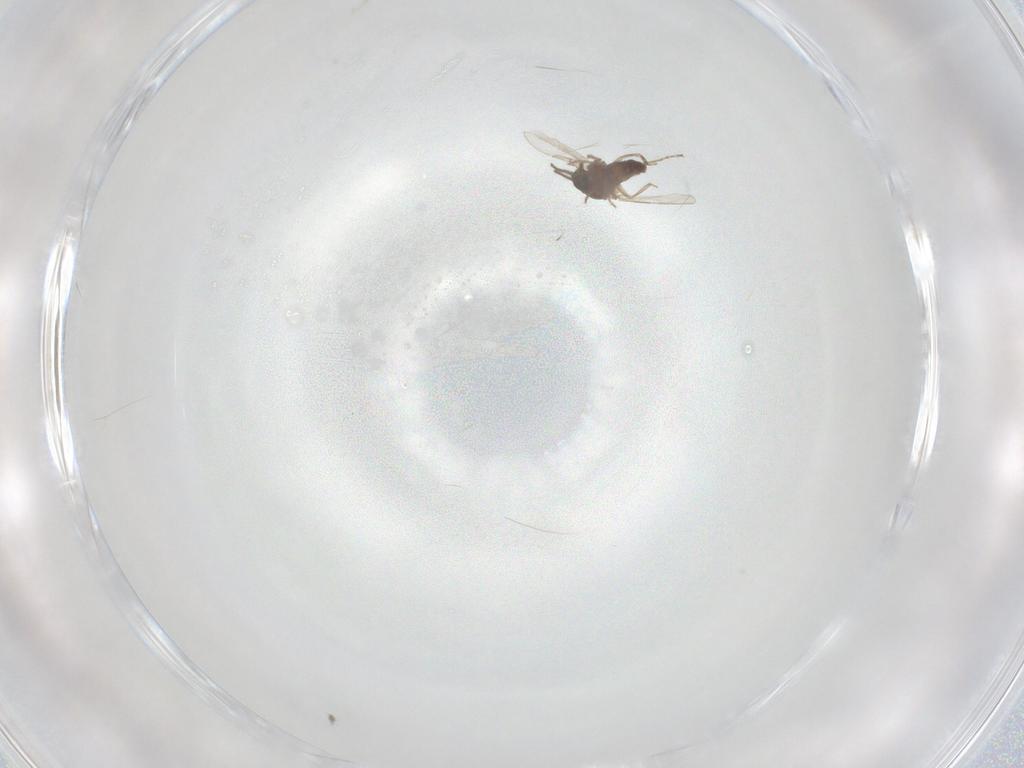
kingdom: Animalia
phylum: Arthropoda
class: Insecta
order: Diptera
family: Ceratopogonidae
